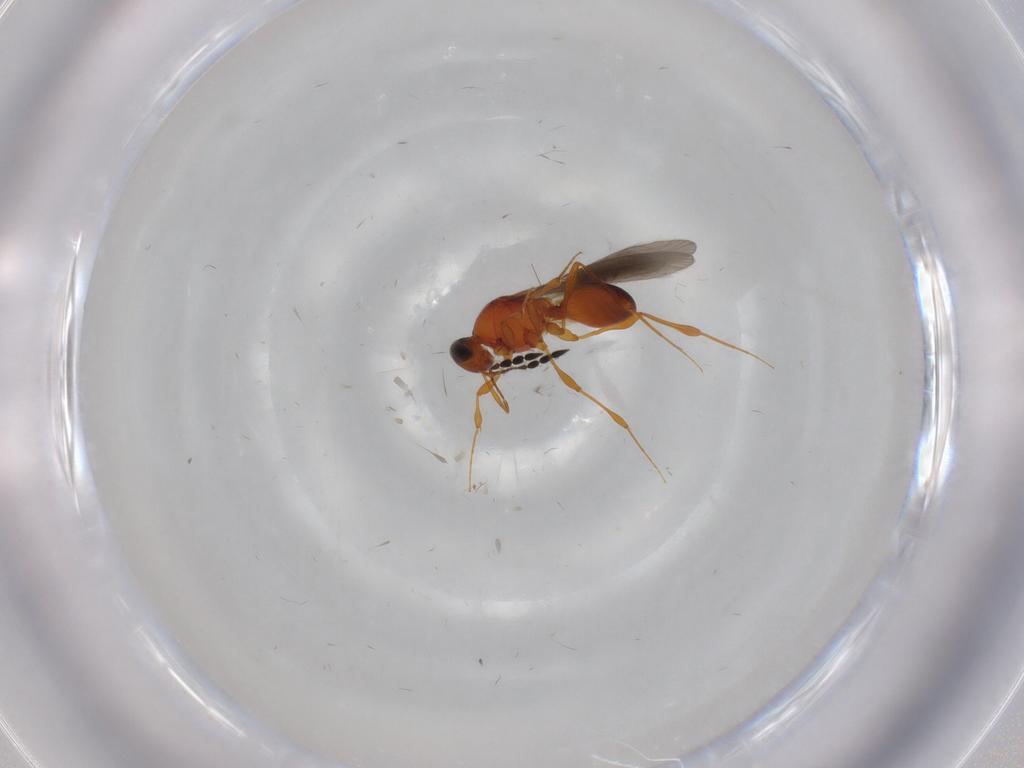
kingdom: Animalia
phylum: Arthropoda
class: Insecta
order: Hymenoptera
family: Platygastridae
